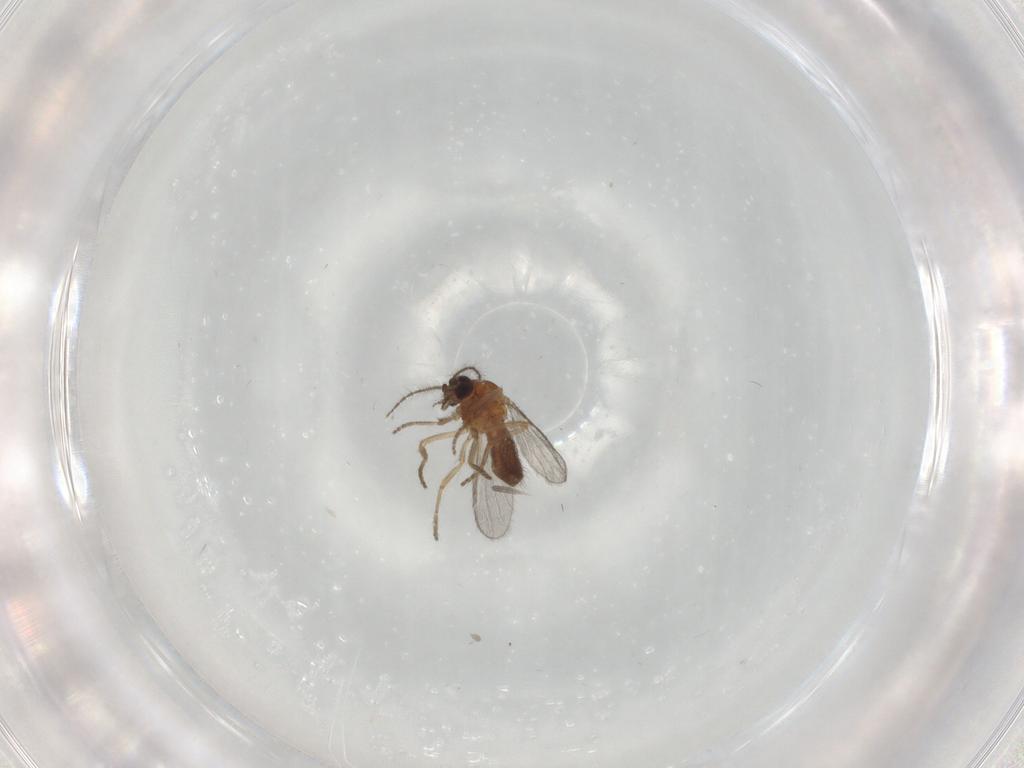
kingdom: Animalia
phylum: Arthropoda
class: Insecta
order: Diptera
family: Ceratopogonidae
